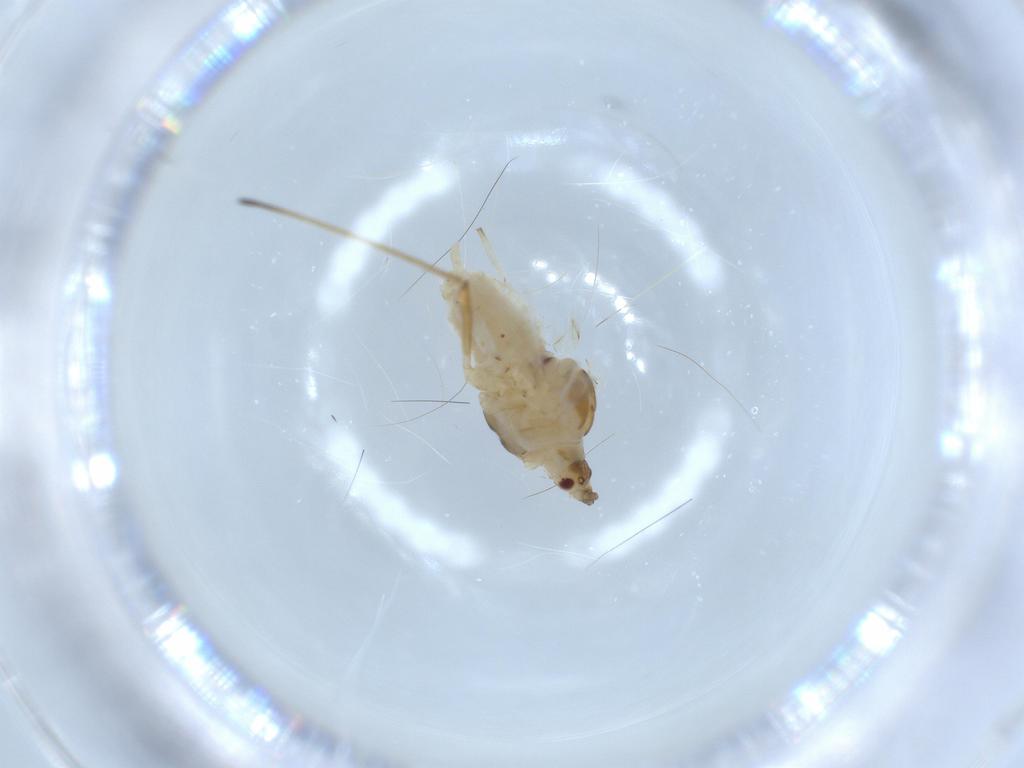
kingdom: Animalia
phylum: Arthropoda
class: Insecta
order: Hemiptera
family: Aphididae
